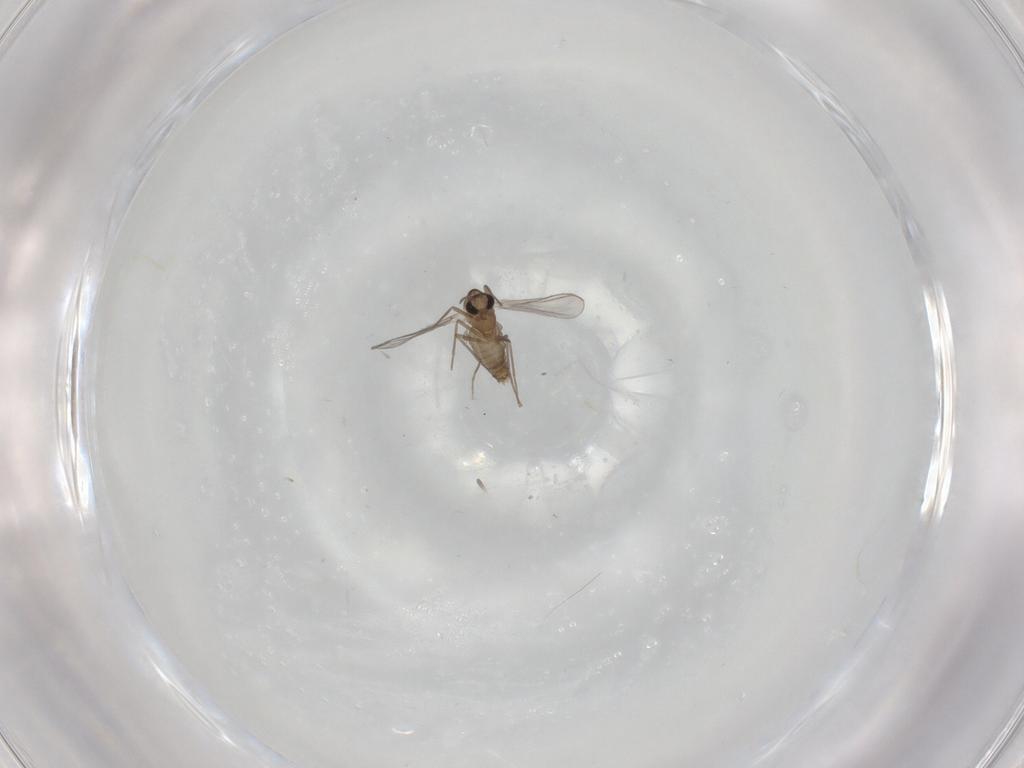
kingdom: Animalia
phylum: Arthropoda
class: Insecta
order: Diptera
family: Chironomidae
